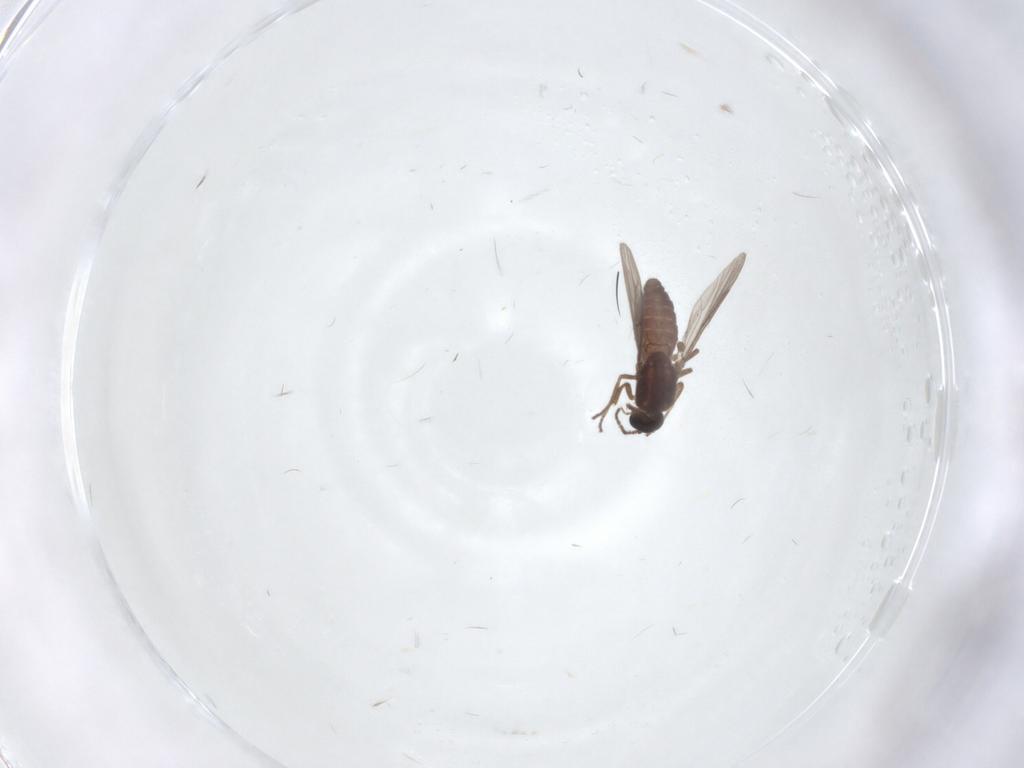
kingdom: Animalia
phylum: Arthropoda
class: Insecta
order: Diptera
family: Ceratopogonidae
